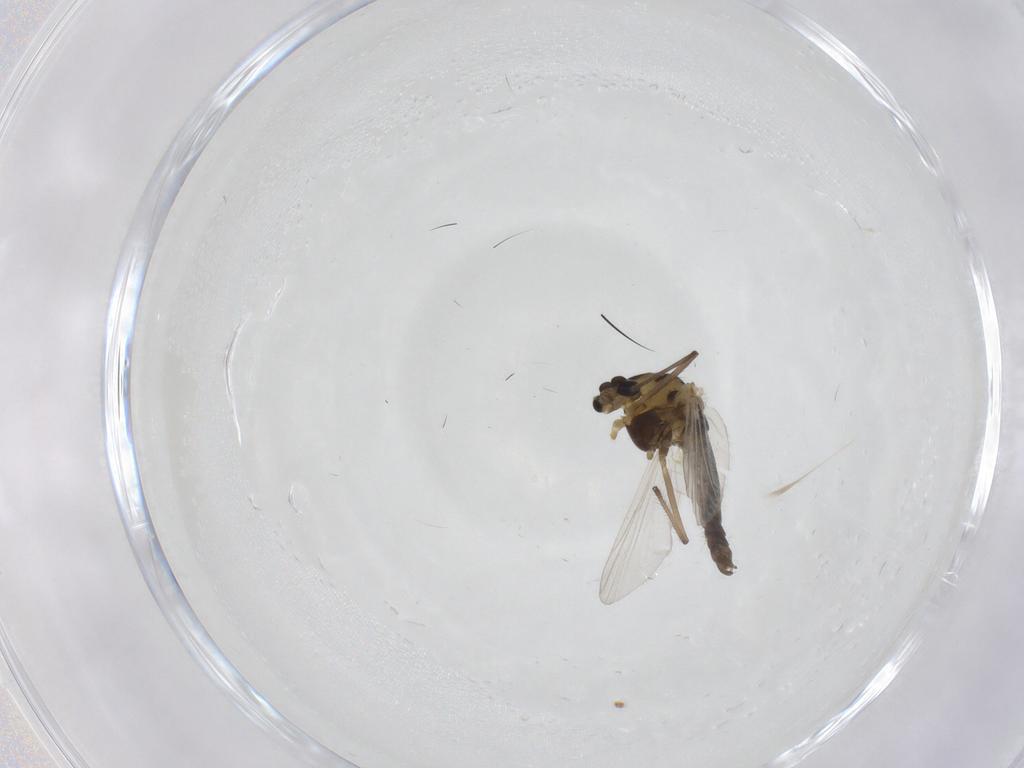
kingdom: Animalia
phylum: Arthropoda
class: Insecta
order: Diptera
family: Chironomidae
